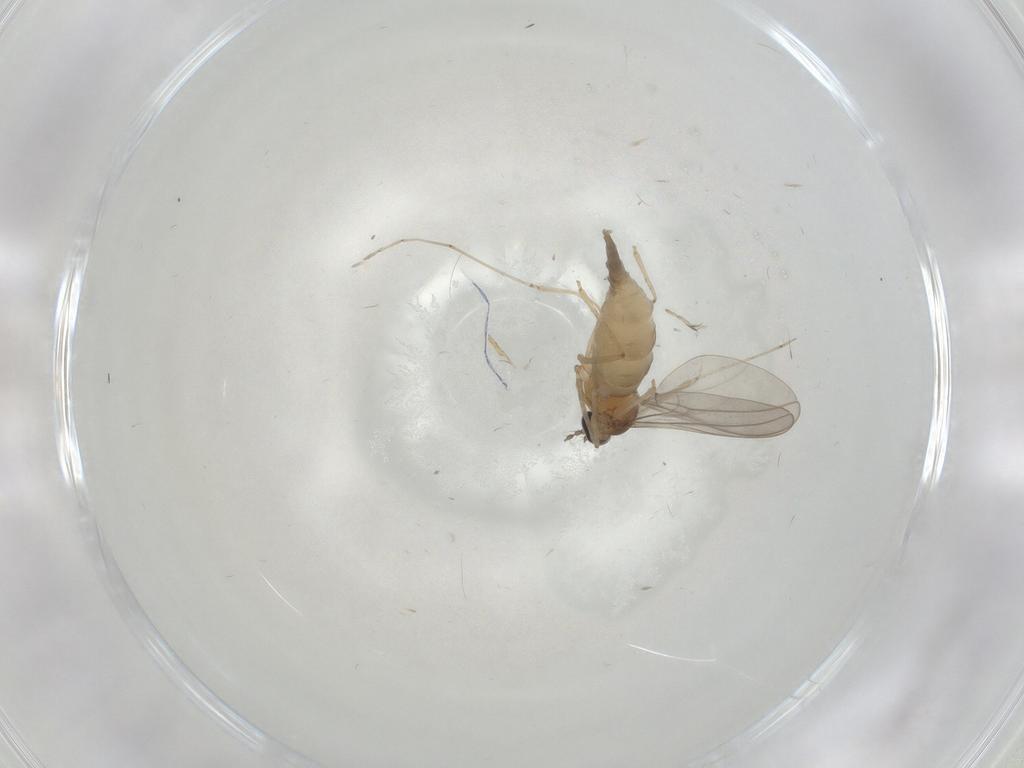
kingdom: Animalia
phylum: Arthropoda
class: Insecta
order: Diptera
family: Cecidomyiidae
